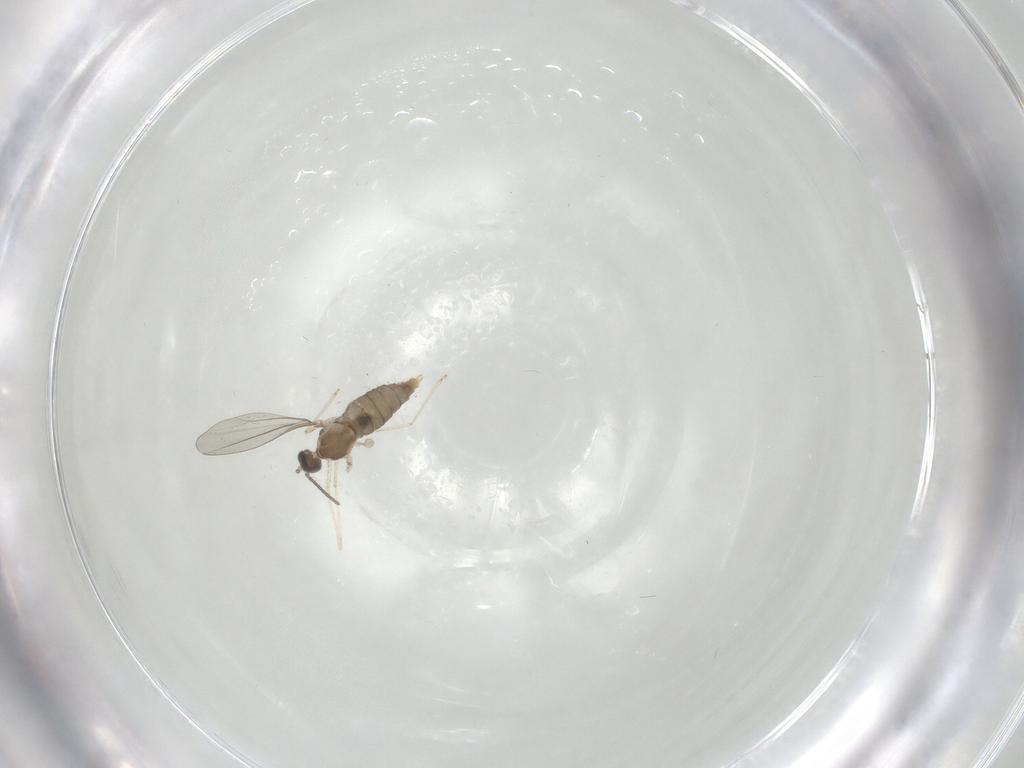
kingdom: Animalia
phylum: Arthropoda
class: Insecta
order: Diptera
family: Cecidomyiidae
